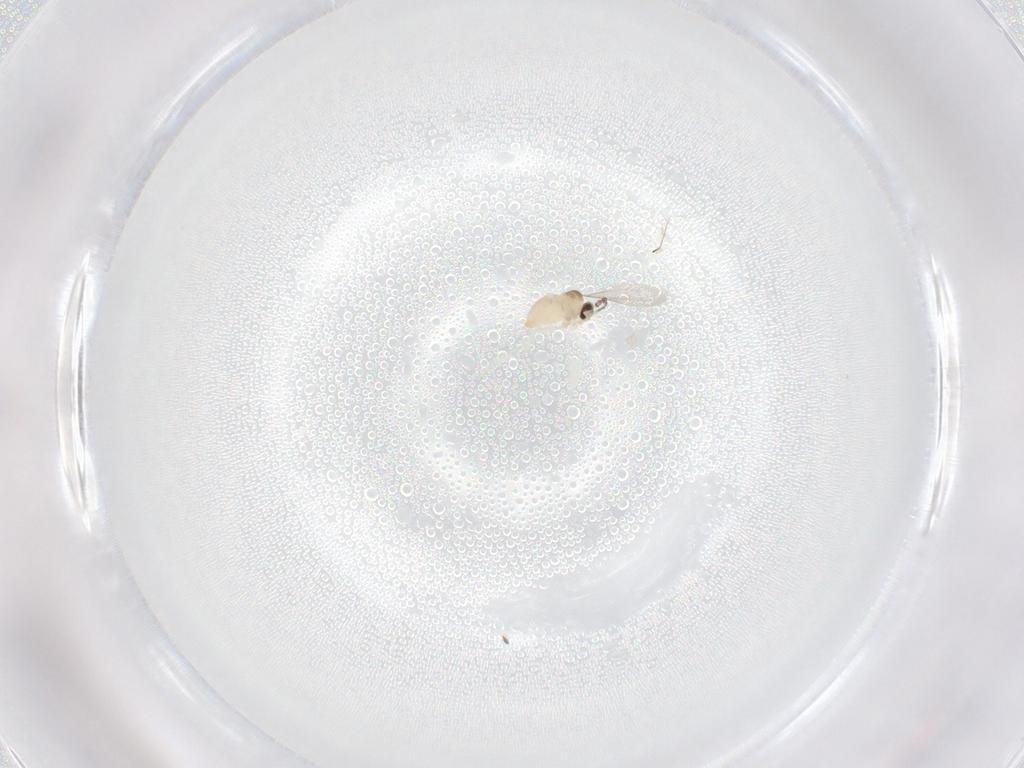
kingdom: Animalia
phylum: Arthropoda
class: Insecta
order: Diptera
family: Cecidomyiidae
